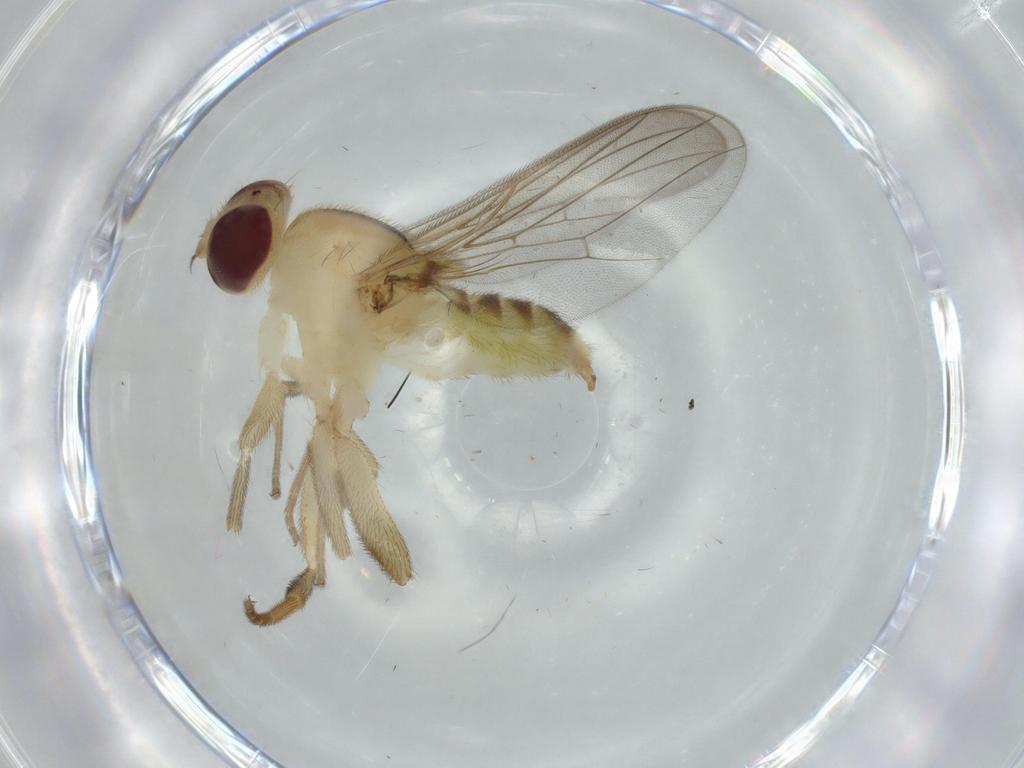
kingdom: Animalia
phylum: Arthropoda
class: Insecta
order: Diptera
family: Chloropidae
